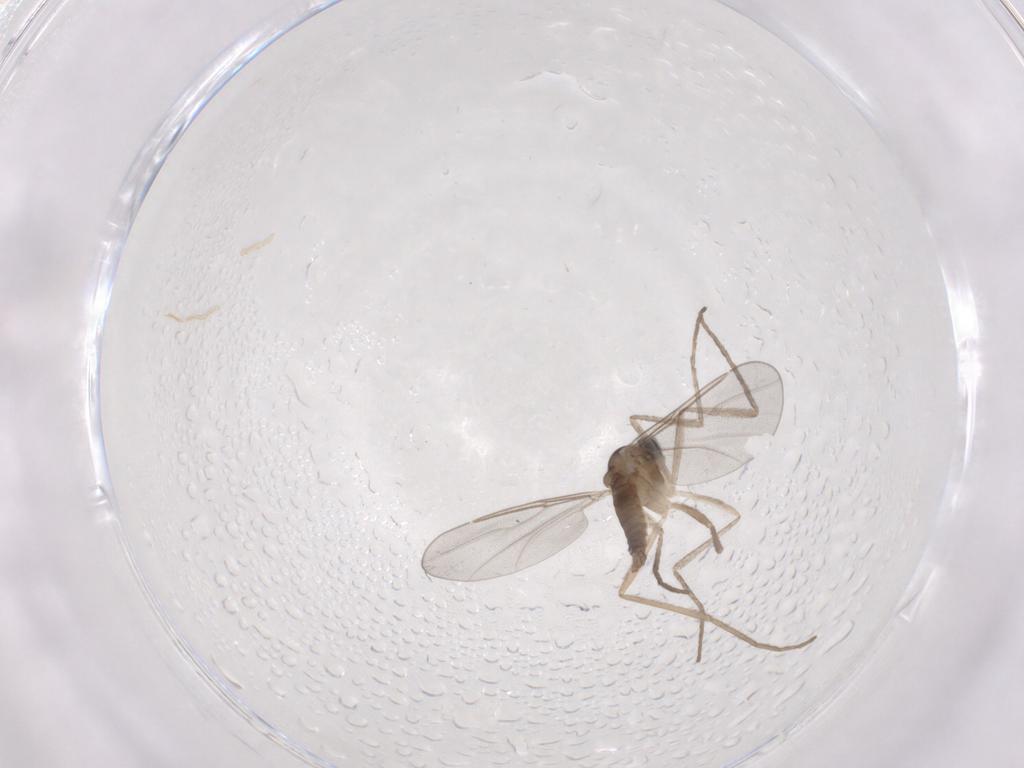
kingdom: Animalia
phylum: Arthropoda
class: Insecta
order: Diptera
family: Cecidomyiidae
